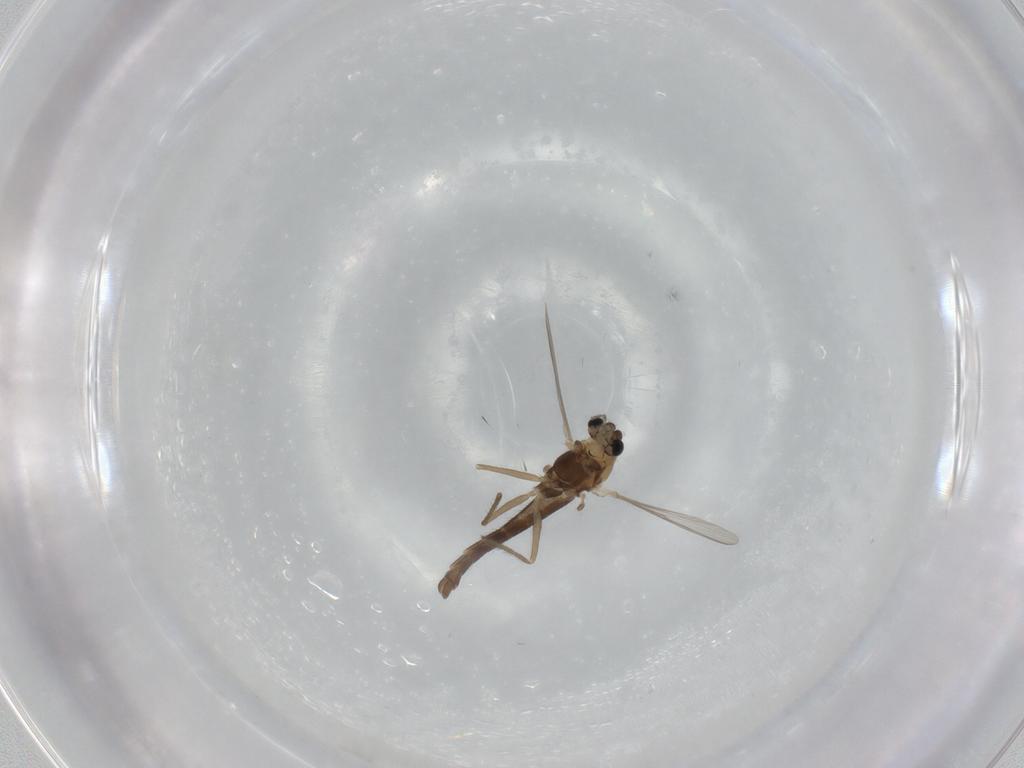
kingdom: Animalia
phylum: Arthropoda
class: Insecta
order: Diptera
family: Chironomidae
